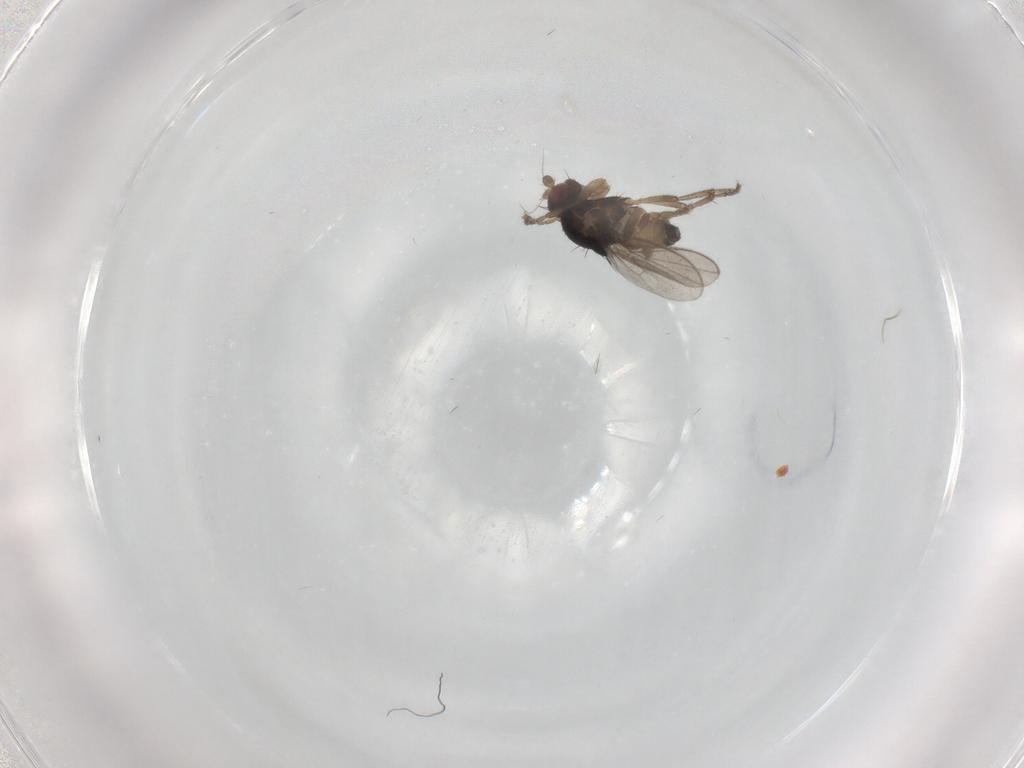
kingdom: Animalia
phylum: Arthropoda
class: Insecta
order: Diptera
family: Sphaeroceridae
